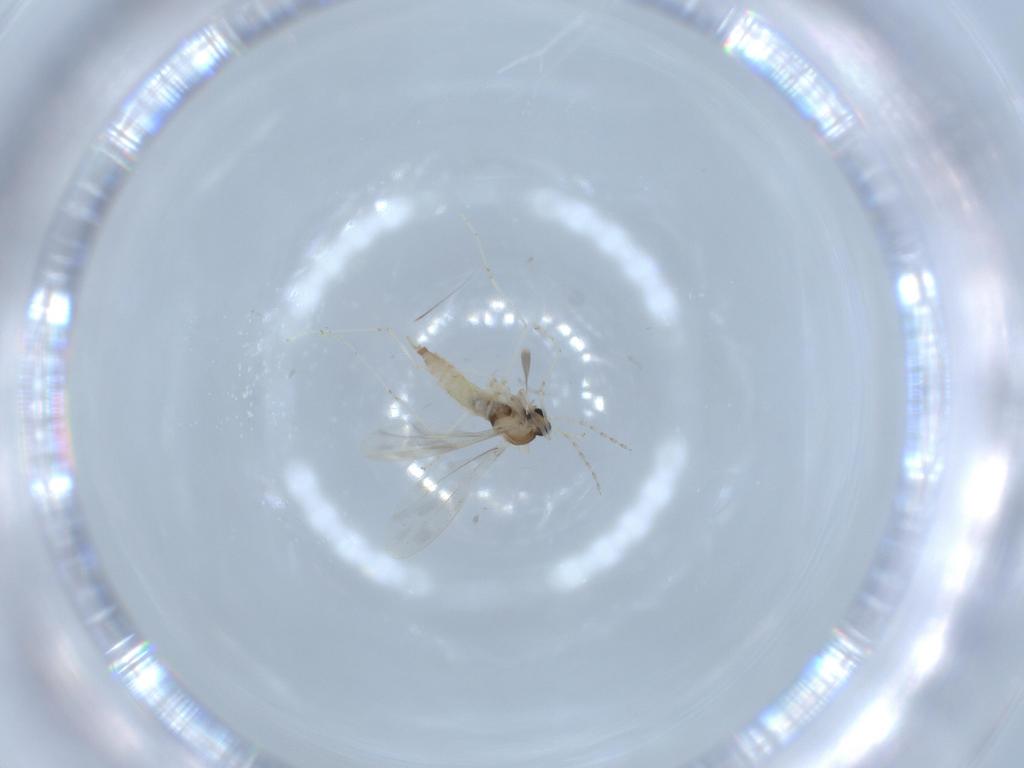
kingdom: Animalia
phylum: Arthropoda
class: Insecta
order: Diptera
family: Cecidomyiidae
